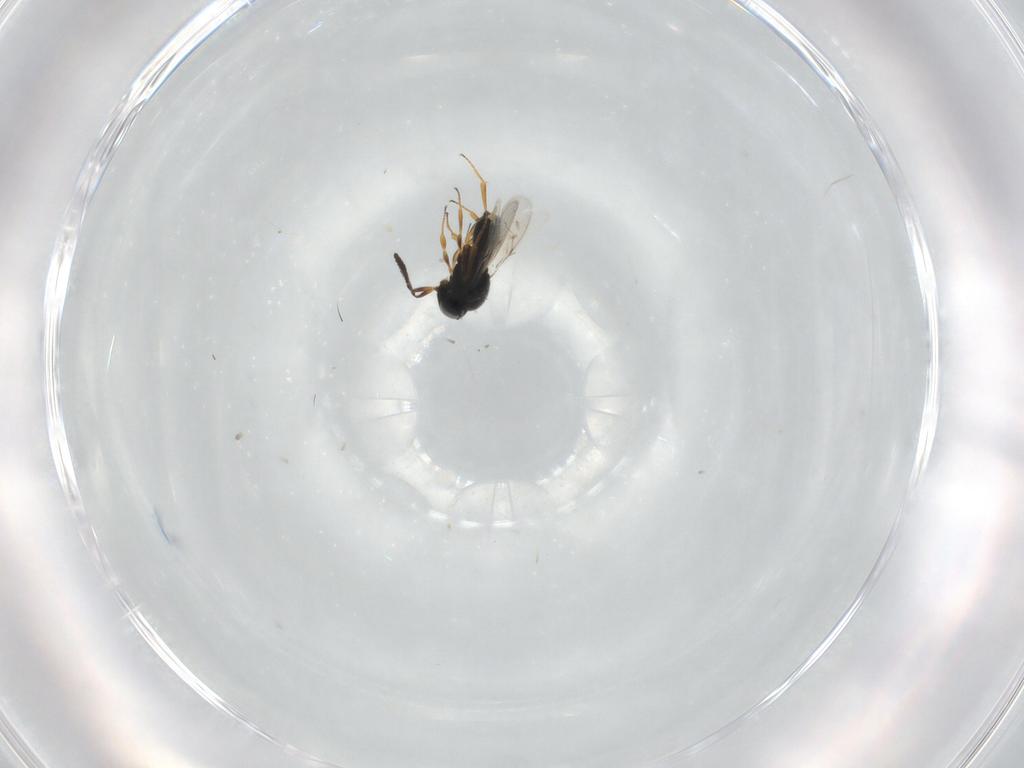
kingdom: Animalia
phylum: Arthropoda
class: Insecta
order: Hymenoptera
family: Scelionidae
